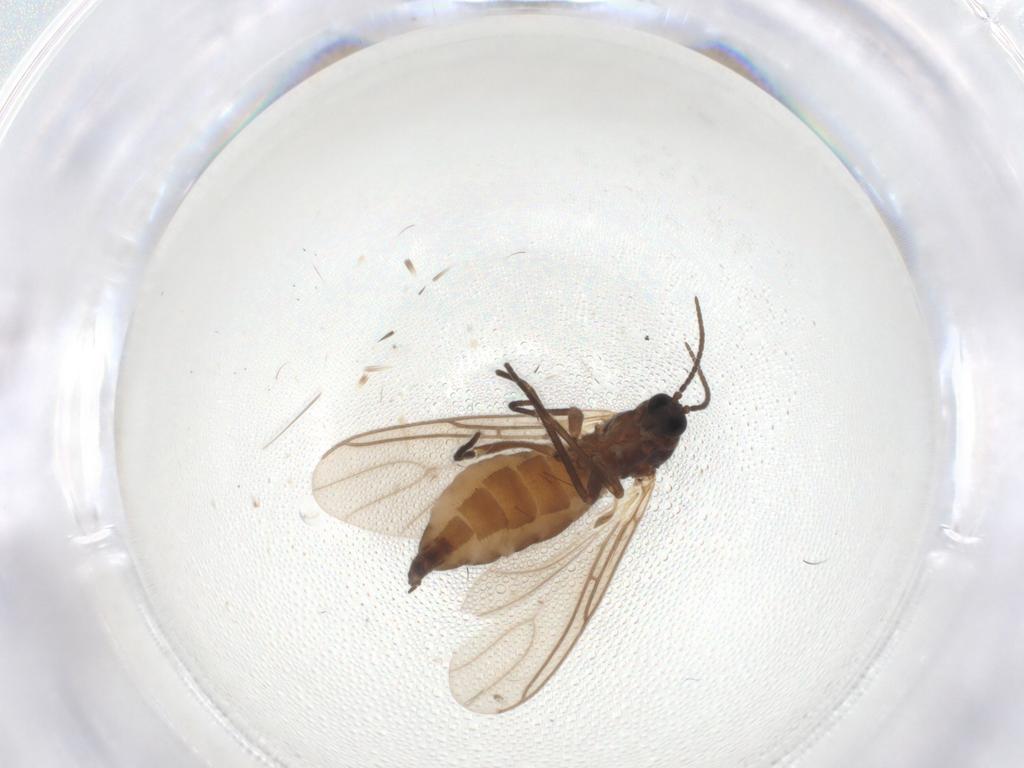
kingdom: Animalia
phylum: Arthropoda
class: Insecta
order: Diptera
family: Sciaridae
